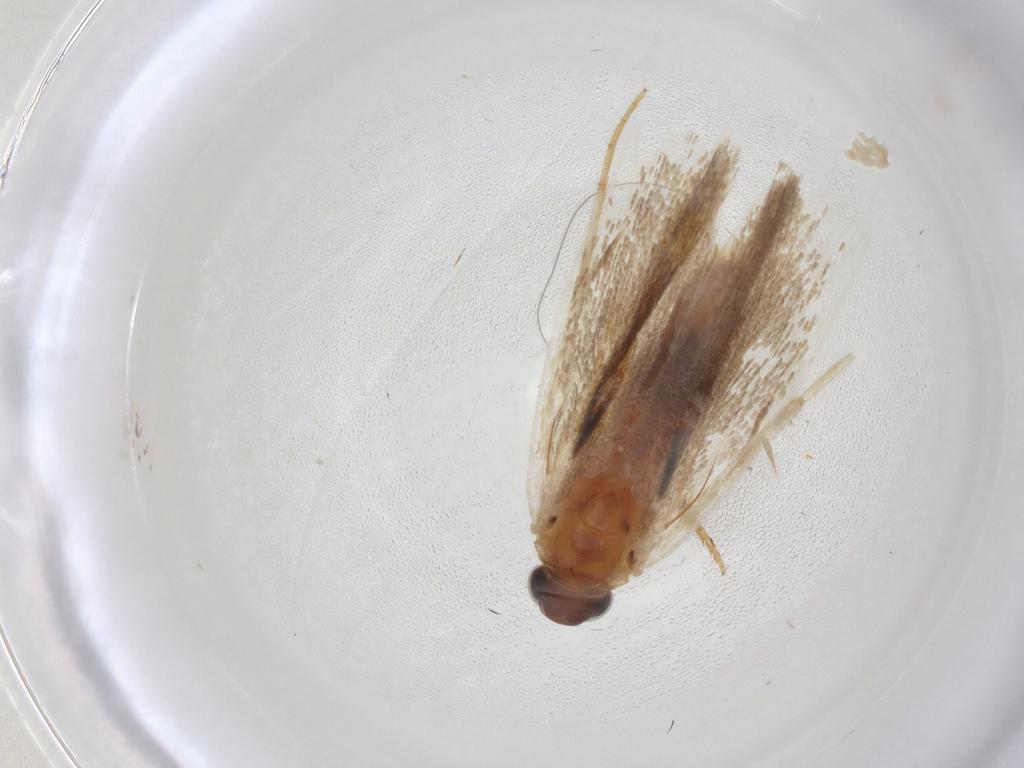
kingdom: Animalia
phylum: Arthropoda
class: Insecta
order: Lepidoptera
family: Gelechiidae
